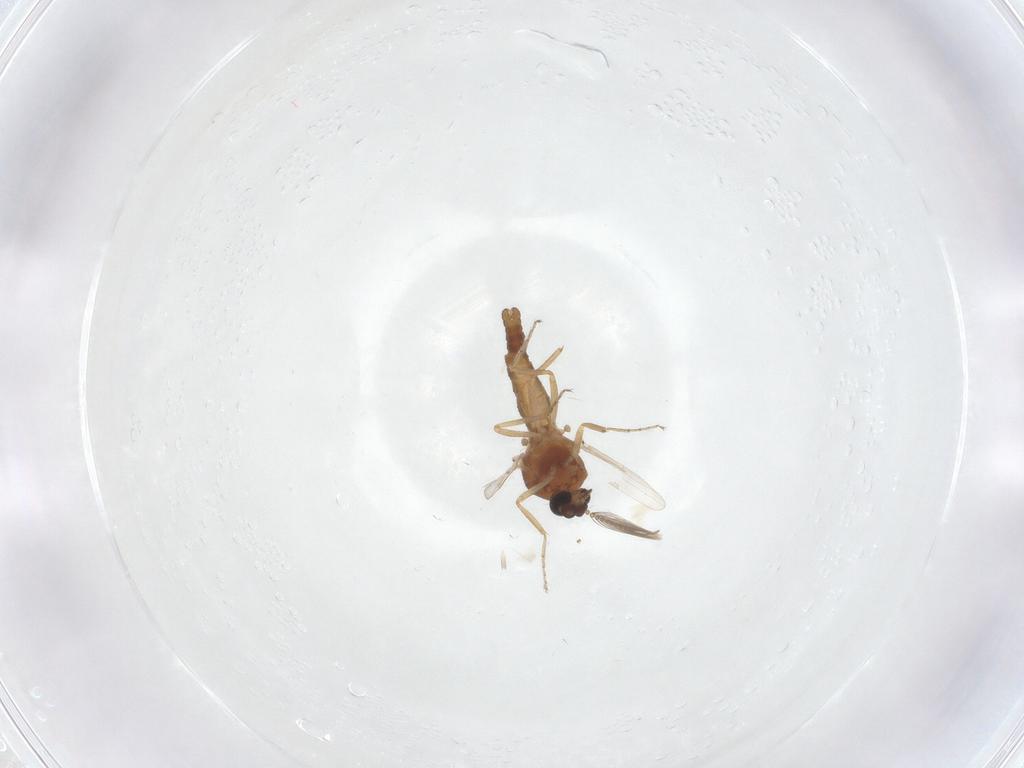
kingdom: Animalia
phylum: Arthropoda
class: Insecta
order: Diptera
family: Ceratopogonidae
